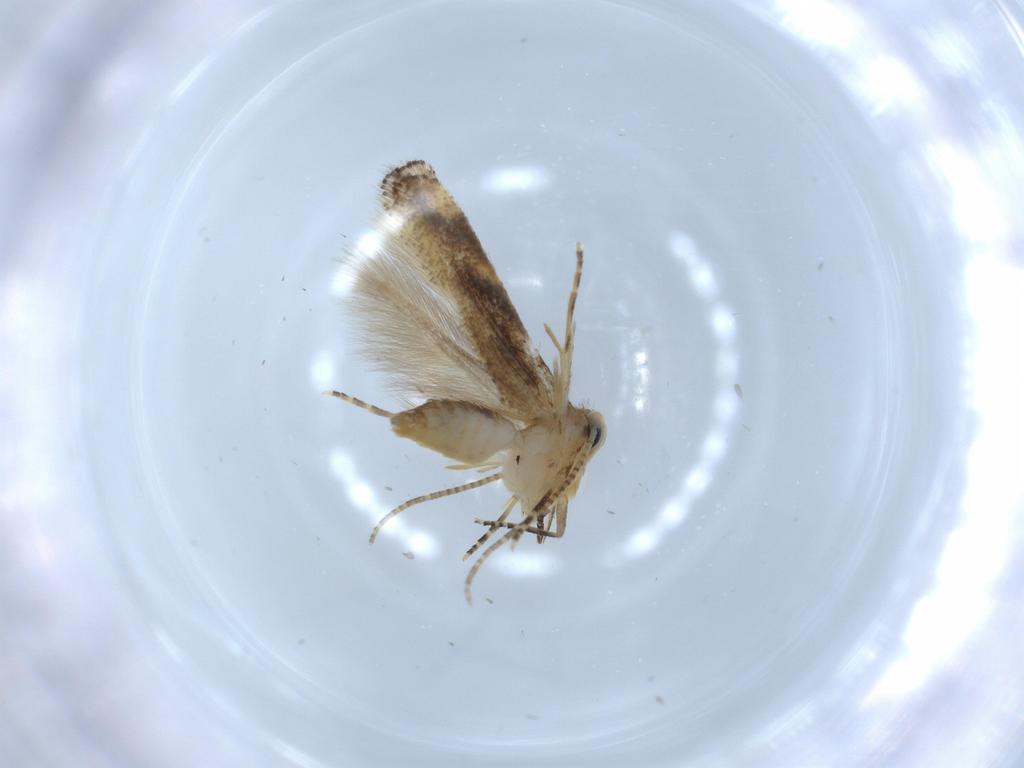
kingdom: Animalia
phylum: Arthropoda
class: Insecta
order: Lepidoptera
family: Bucculatricidae
